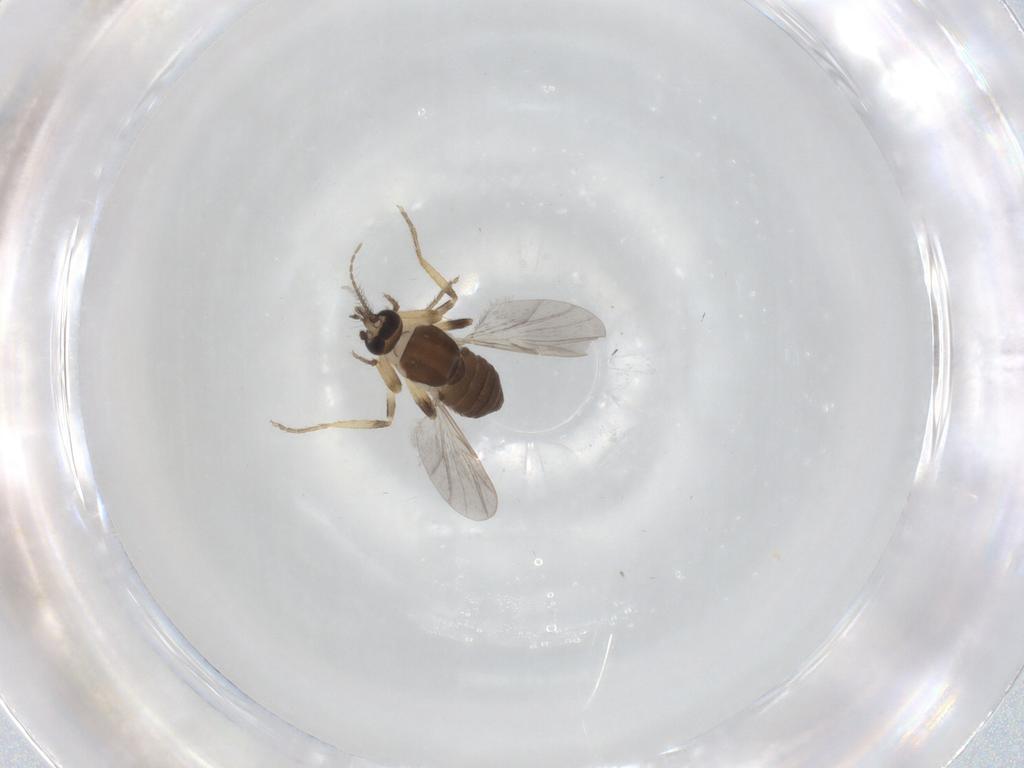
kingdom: Animalia
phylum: Arthropoda
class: Insecta
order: Diptera
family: Ceratopogonidae
